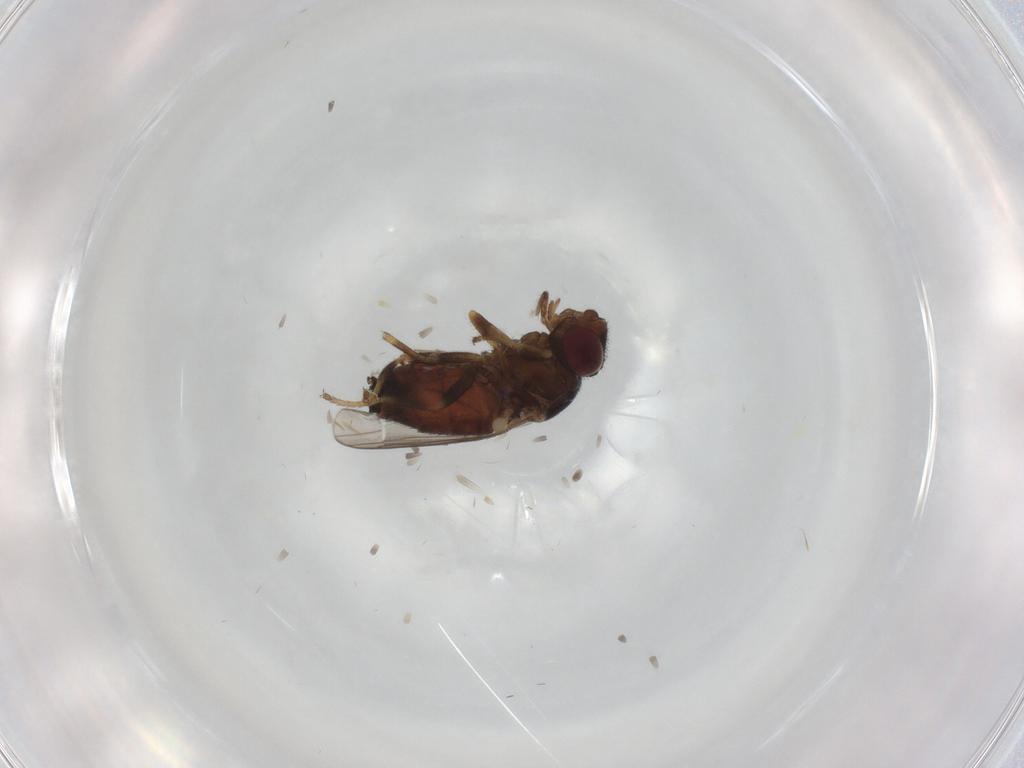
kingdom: Animalia
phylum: Arthropoda
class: Insecta
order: Diptera
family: Chloropidae
